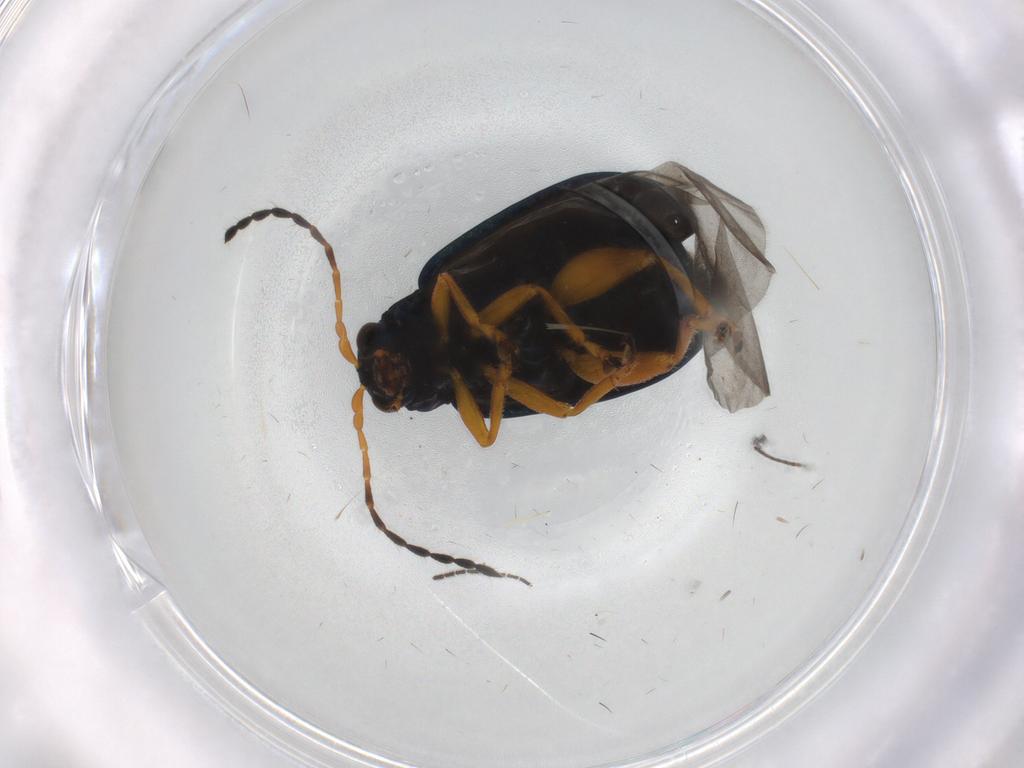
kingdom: Animalia
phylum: Arthropoda
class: Insecta
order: Coleoptera
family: Chrysomelidae
